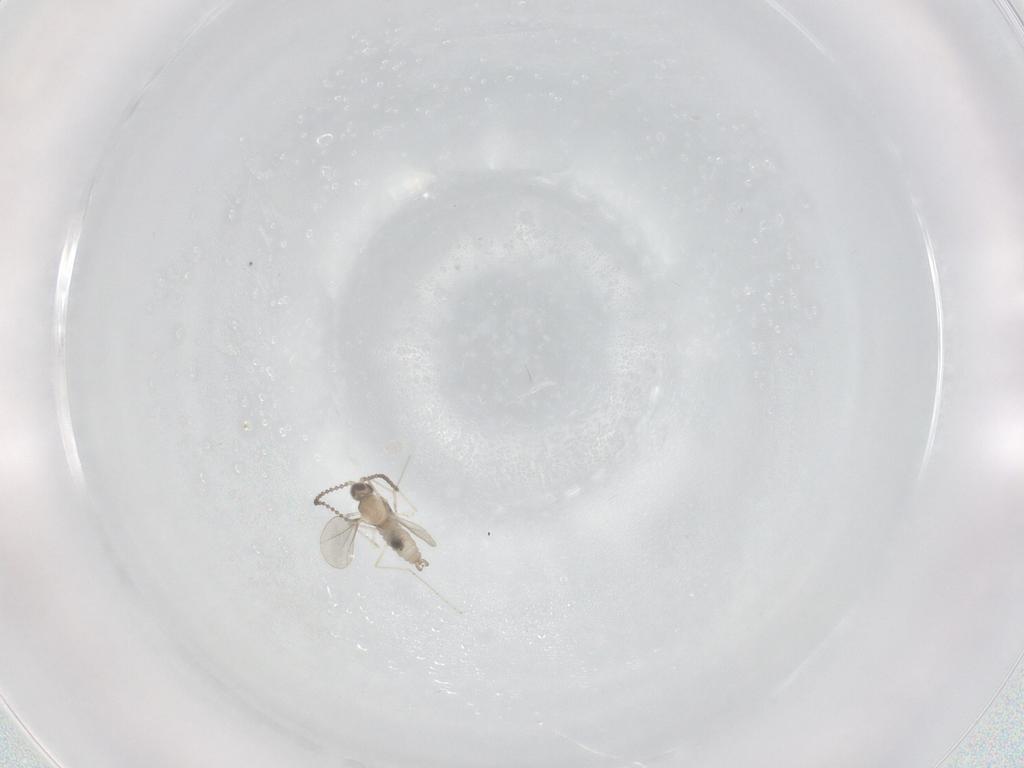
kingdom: Animalia
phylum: Arthropoda
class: Insecta
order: Diptera
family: Cecidomyiidae
